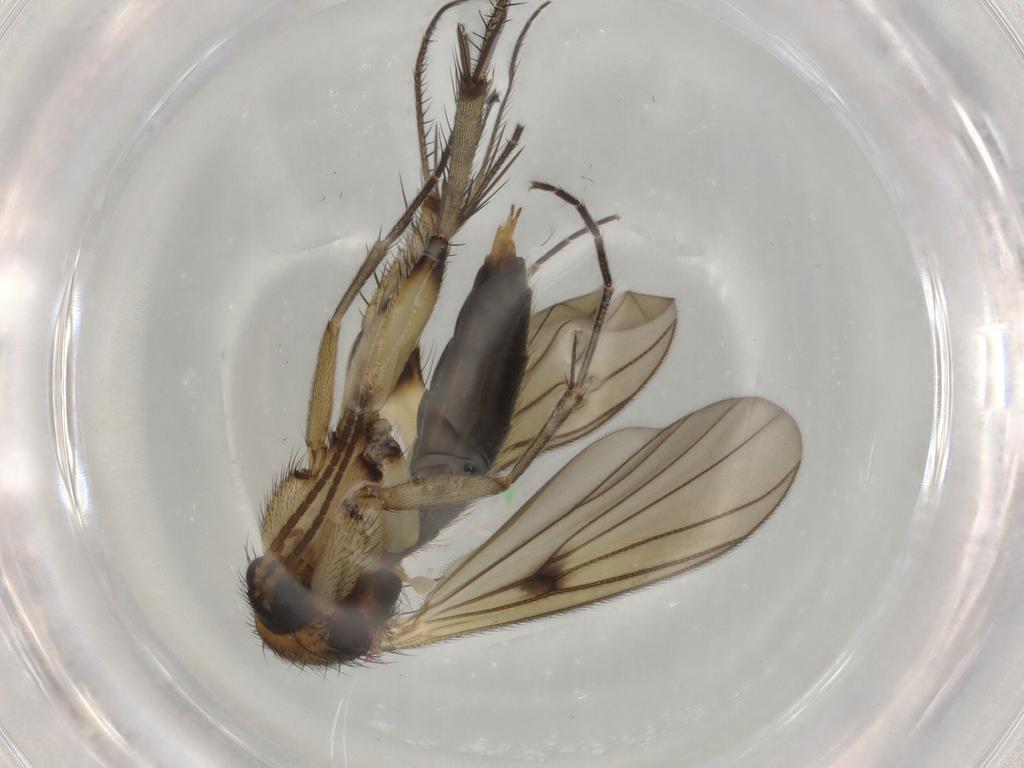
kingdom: Animalia
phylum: Arthropoda
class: Insecta
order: Diptera
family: Mycetophilidae
